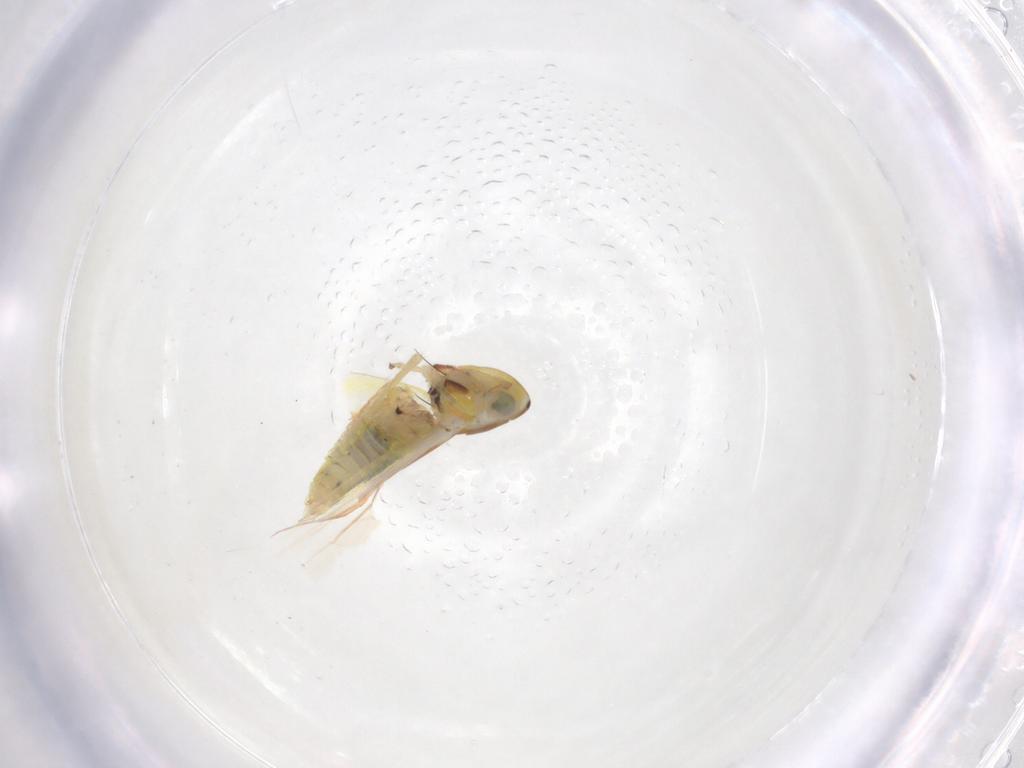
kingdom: Animalia
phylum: Arthropoda
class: Insecta
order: Hemiptera
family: Cicadellidae
